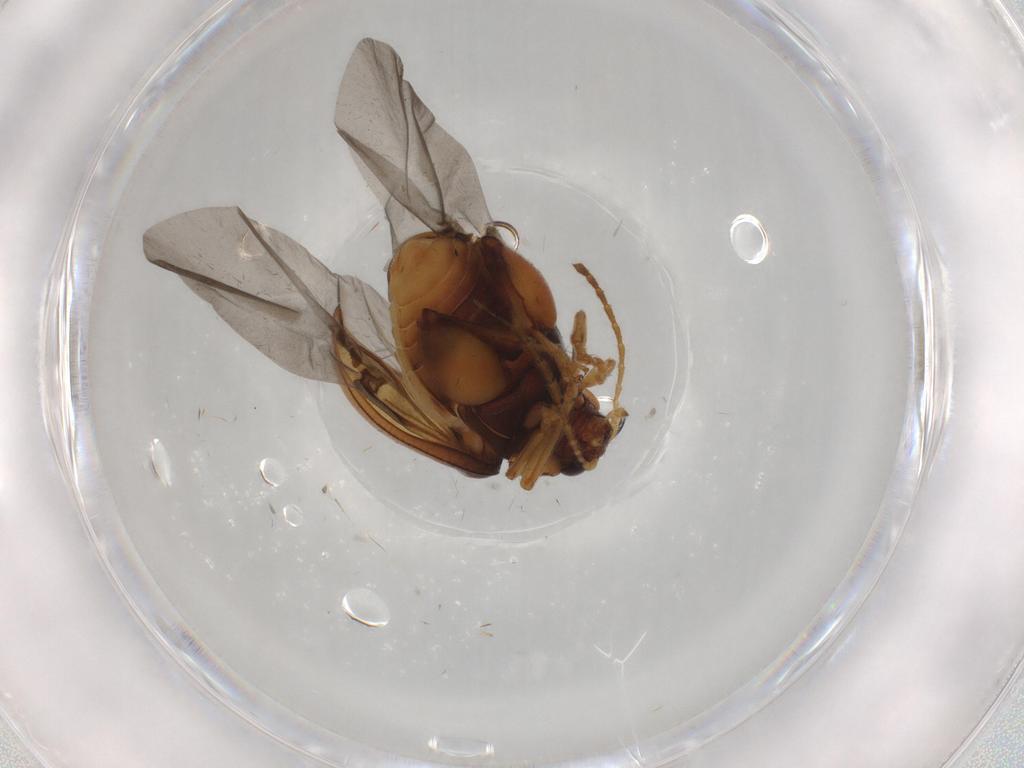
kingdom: Animalia
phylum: Arthropoda
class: Insecta
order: Coleoptera
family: Chrysomelidae
